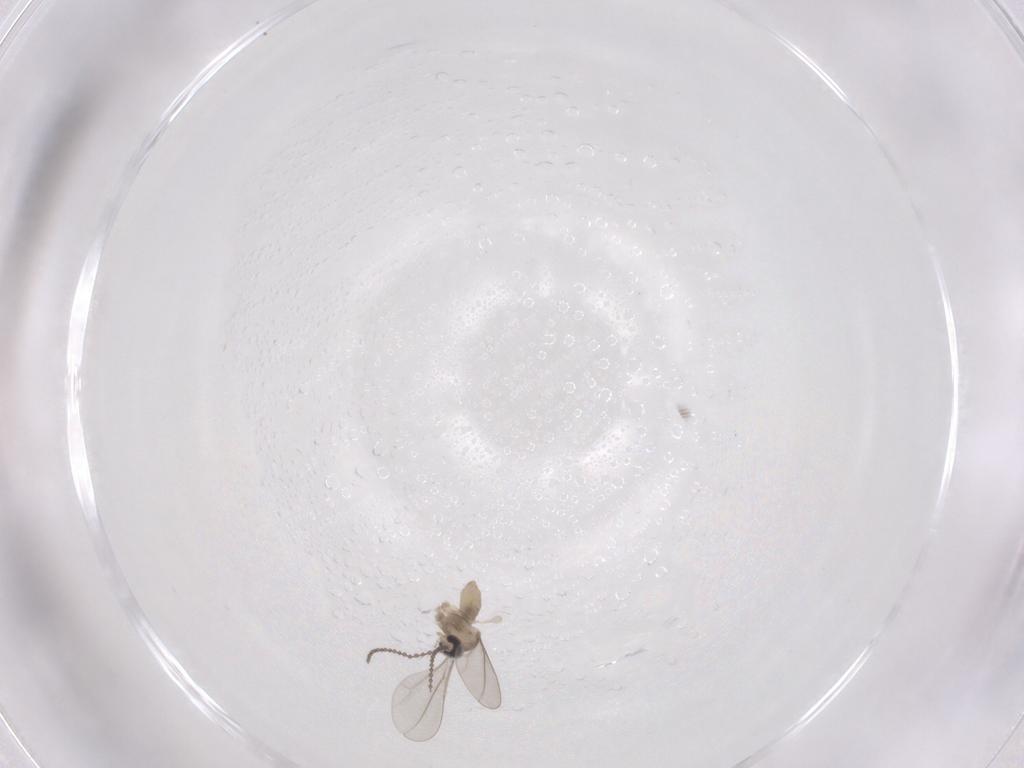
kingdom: Animalia
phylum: Arthropoda
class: Insecta
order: Diptera
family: Cecidomyiidae
